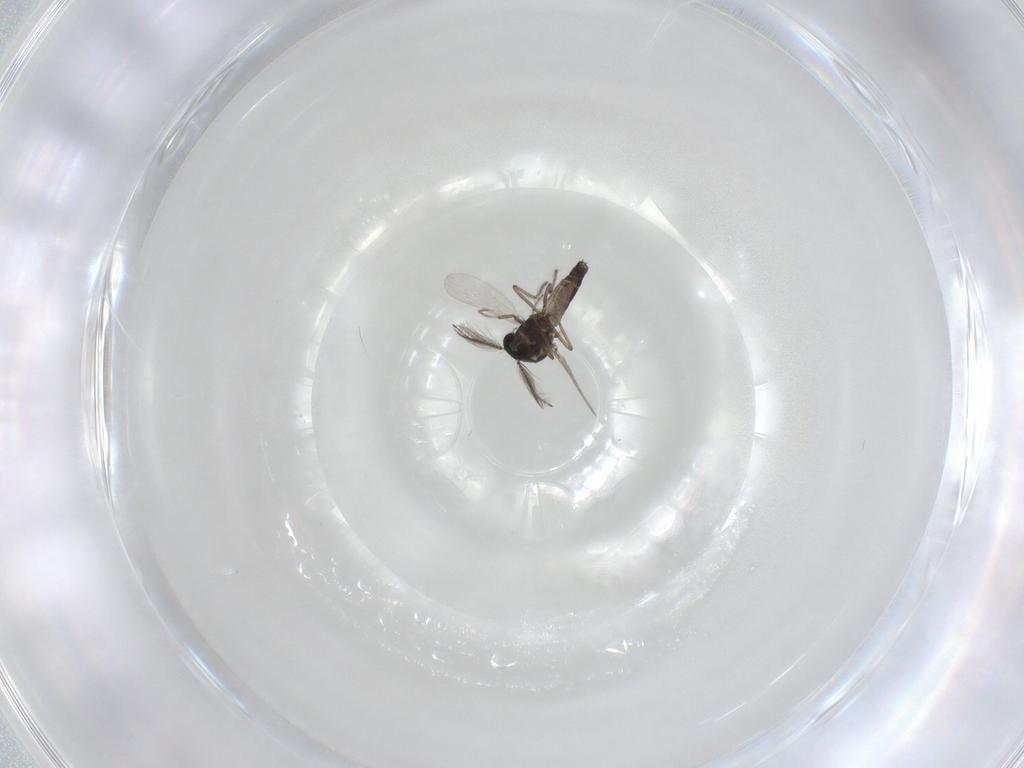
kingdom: Animalia
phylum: Arthropoda
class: Insecta
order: Diptera
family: Ceratopogonidae
